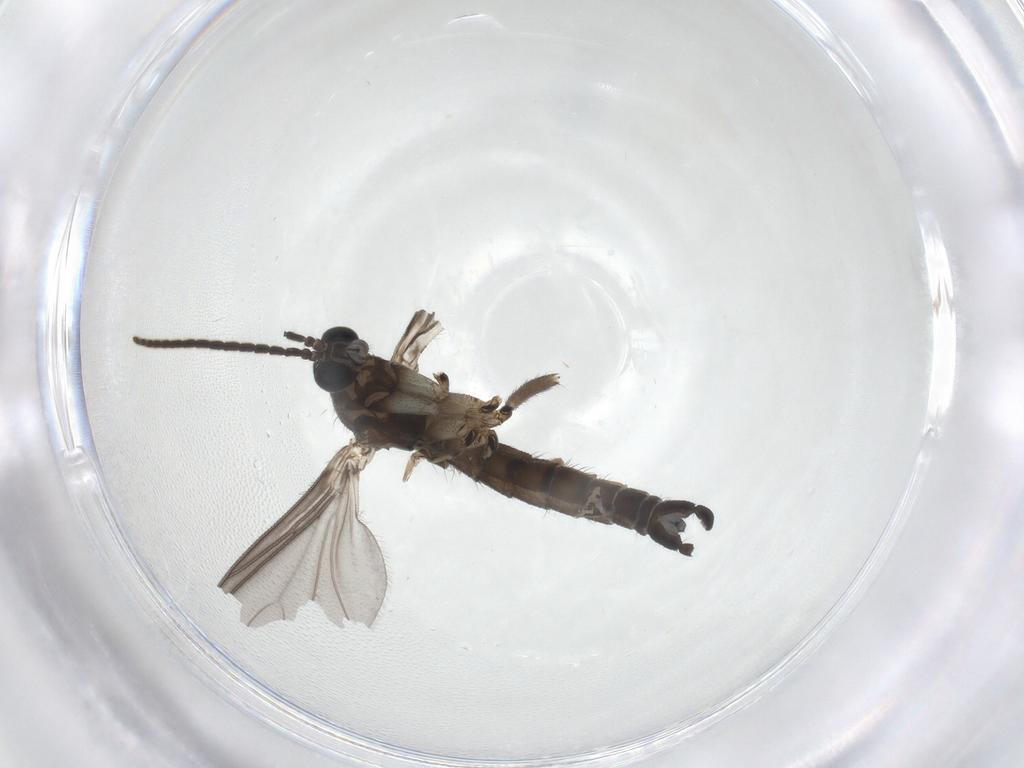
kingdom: Animalia
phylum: Arthropoda
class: Insecta
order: Diptera
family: Sciaridae
